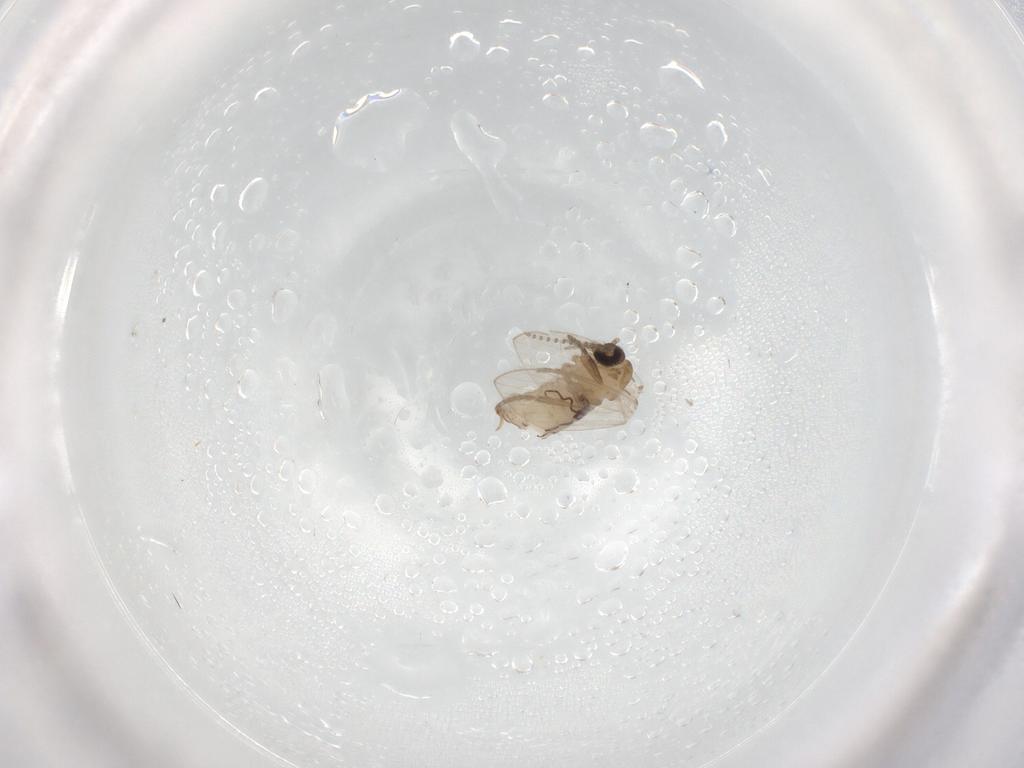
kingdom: Animalia
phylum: Arthropoda
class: Insecta
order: Diptera
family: Psychodidae
